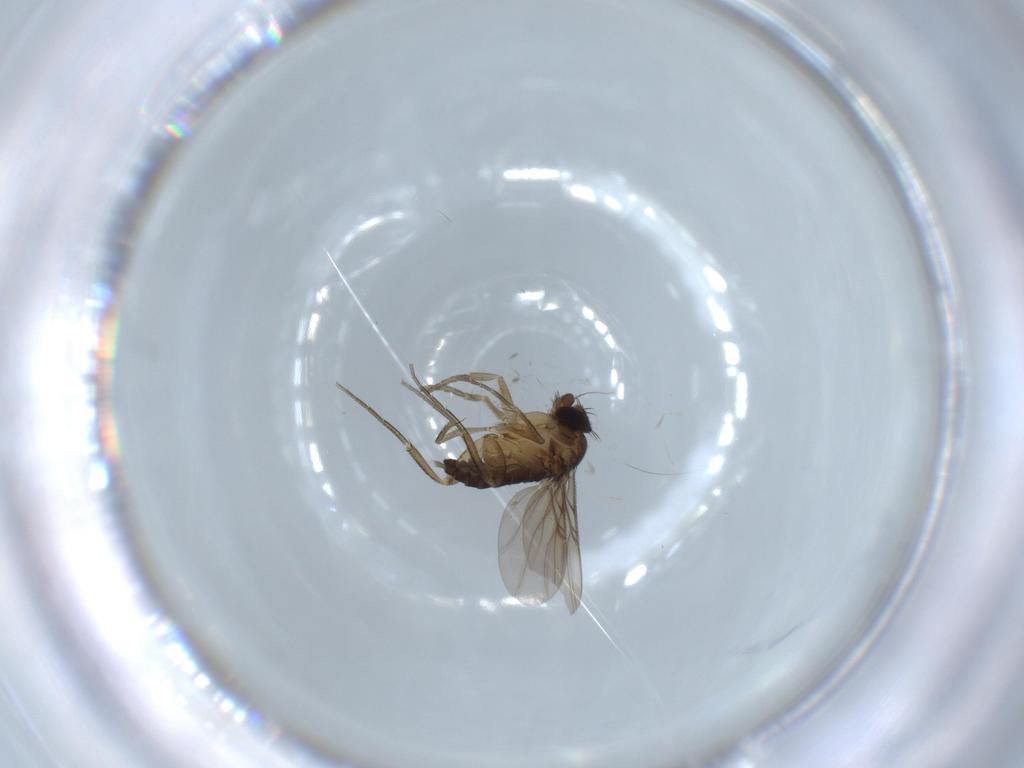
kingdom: Animalia
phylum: Arthropoda
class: Insecta
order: Diptera
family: Phoridae
